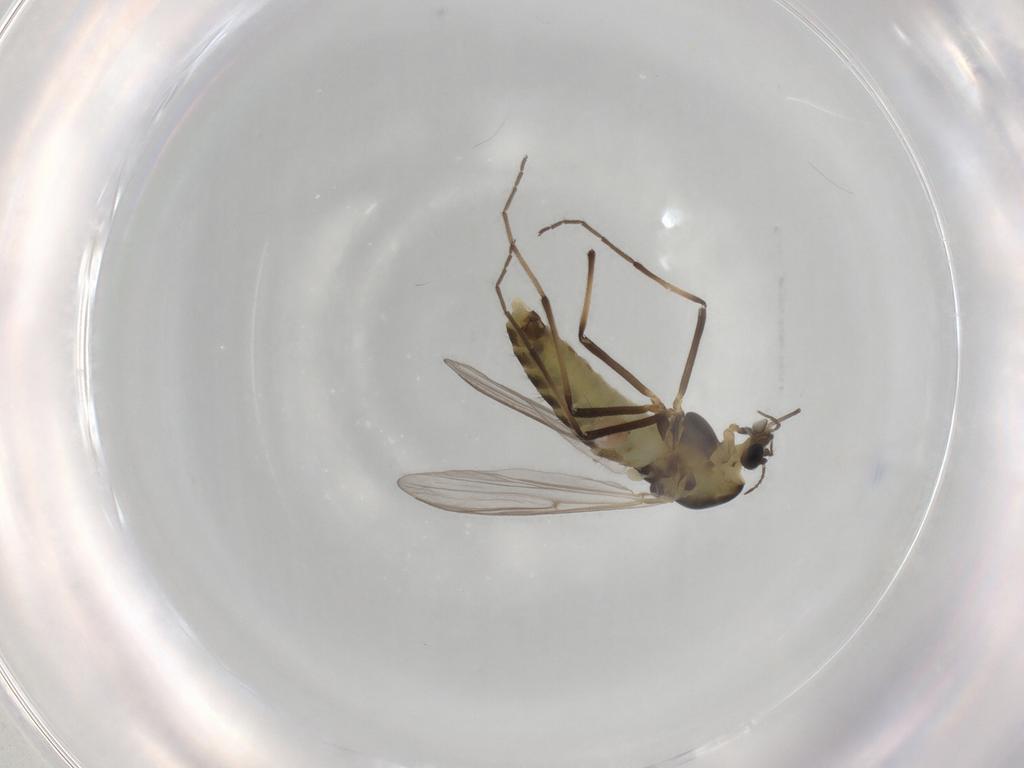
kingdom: Animalia
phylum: Arthropoda
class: Insecta
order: Diptera
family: Chironomidae
